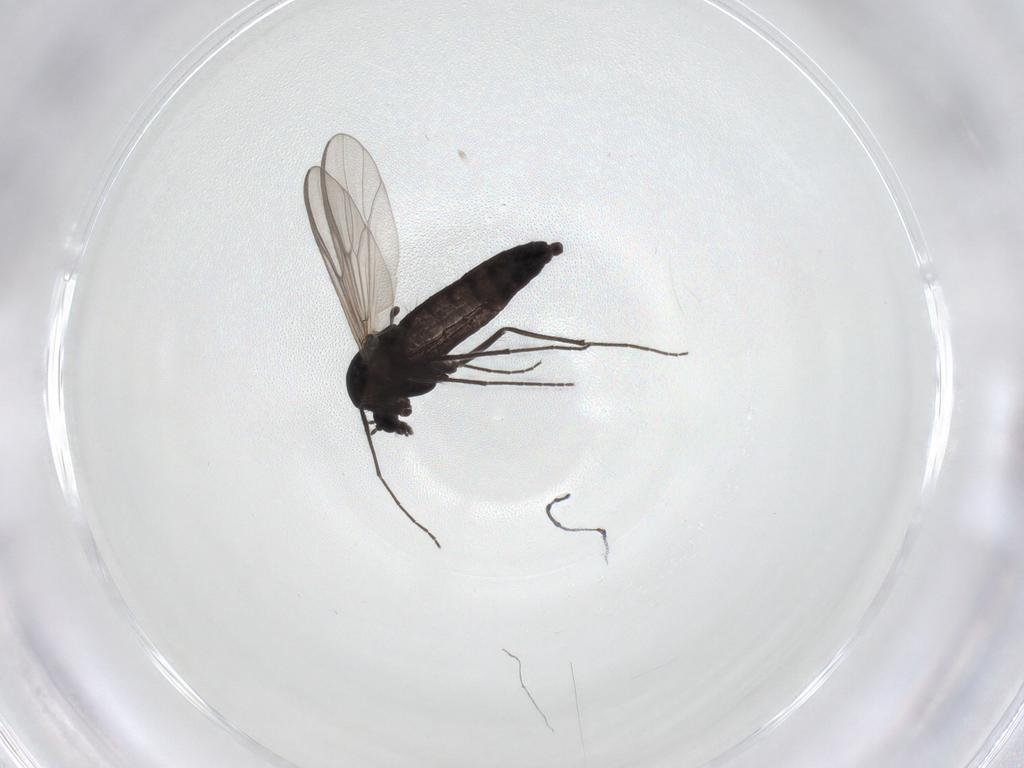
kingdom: Animalia
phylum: Arthropoda
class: Insecta
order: Diptera
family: Chironomidae
